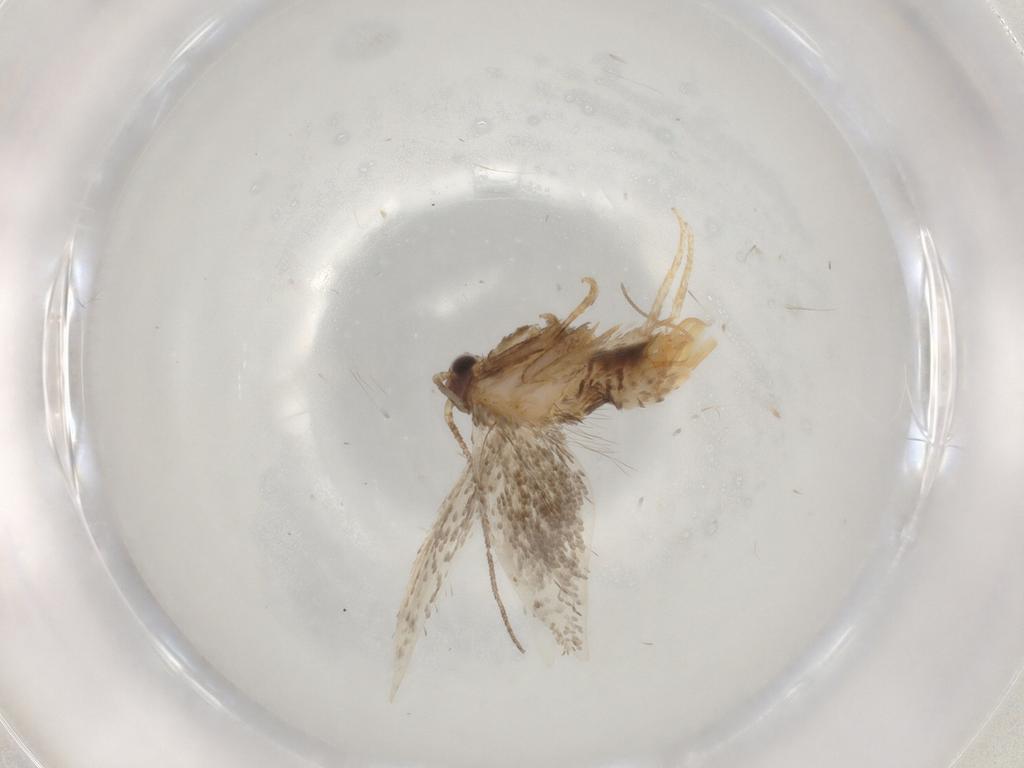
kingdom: Animalia
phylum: Arthropoda
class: Insecta
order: Lepidoptera
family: Tineidae
